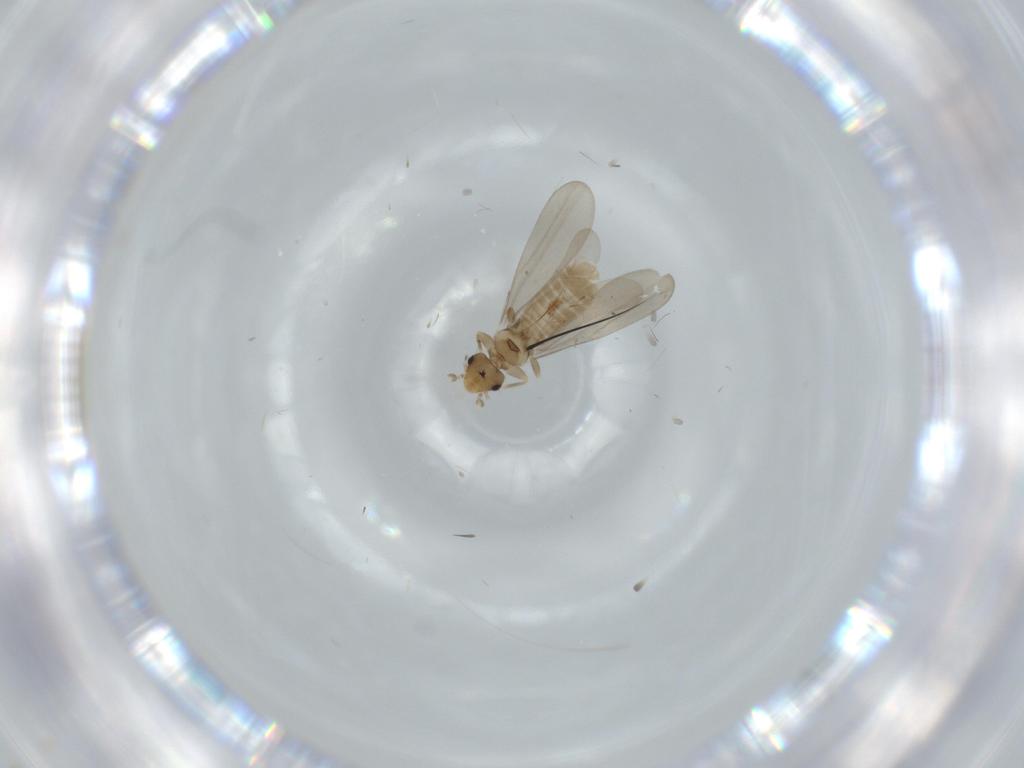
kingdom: Animalia
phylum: Arthropoda
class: Insecta
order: Psocodea
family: Liposcelididae
